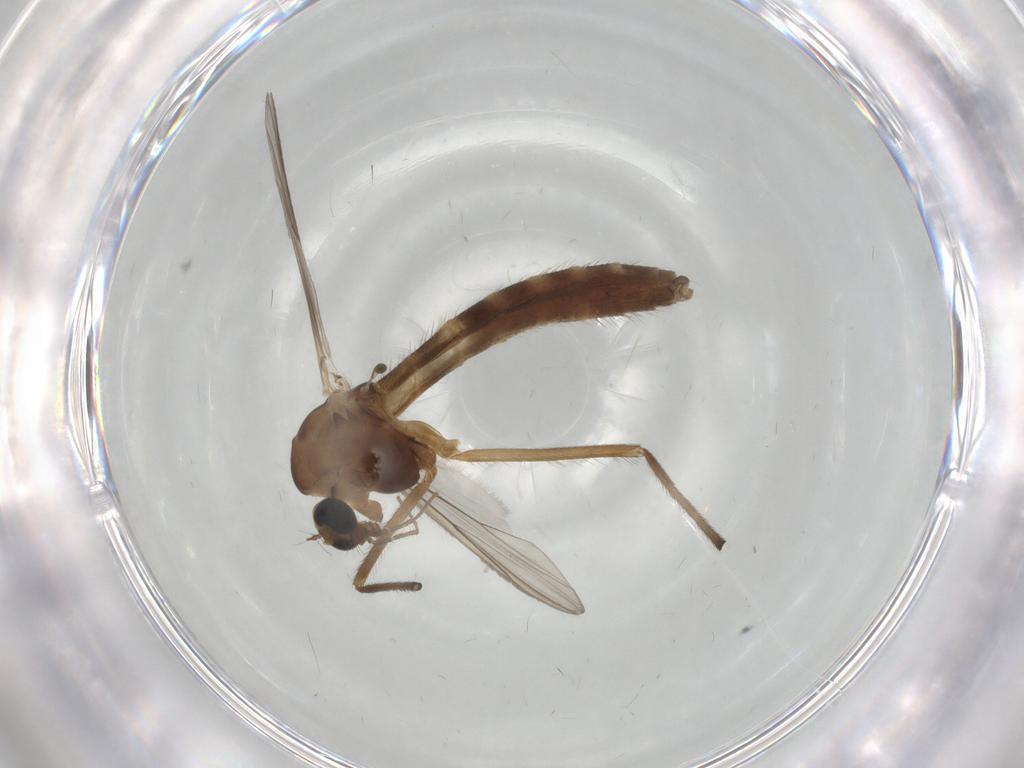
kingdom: Animalia
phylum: Arthropoda
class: Insecta
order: Diptera
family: Chironomidae
